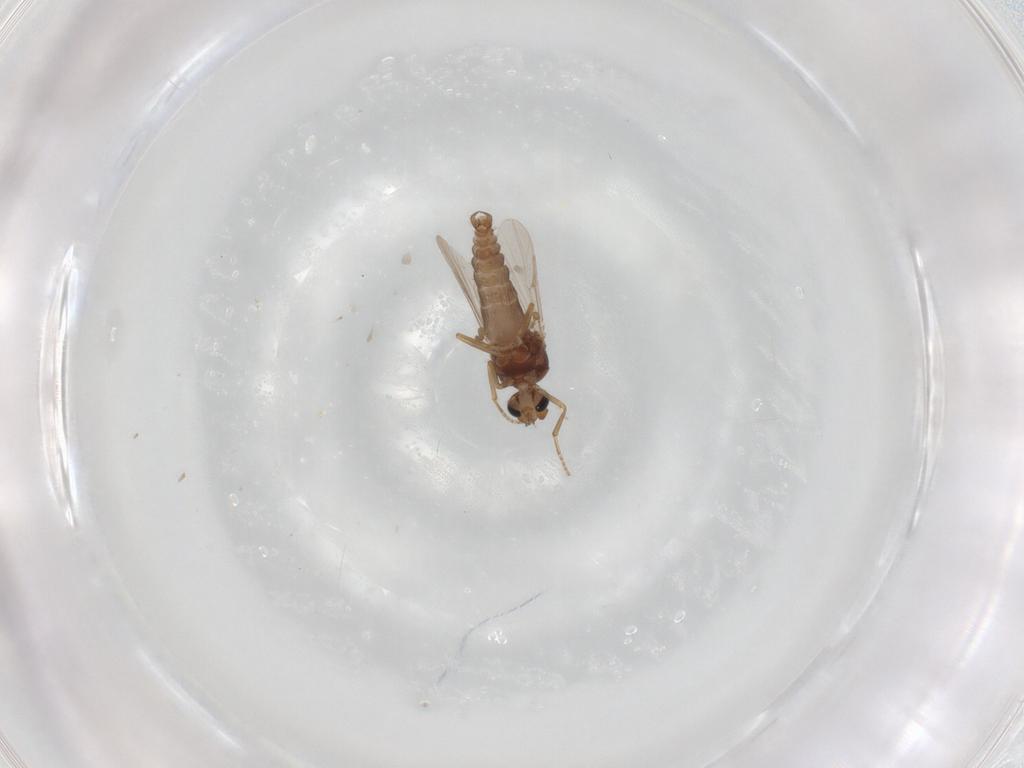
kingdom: Animalia
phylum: Arthropoda
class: Insecta
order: Diptera
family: Ceratopogonidae
